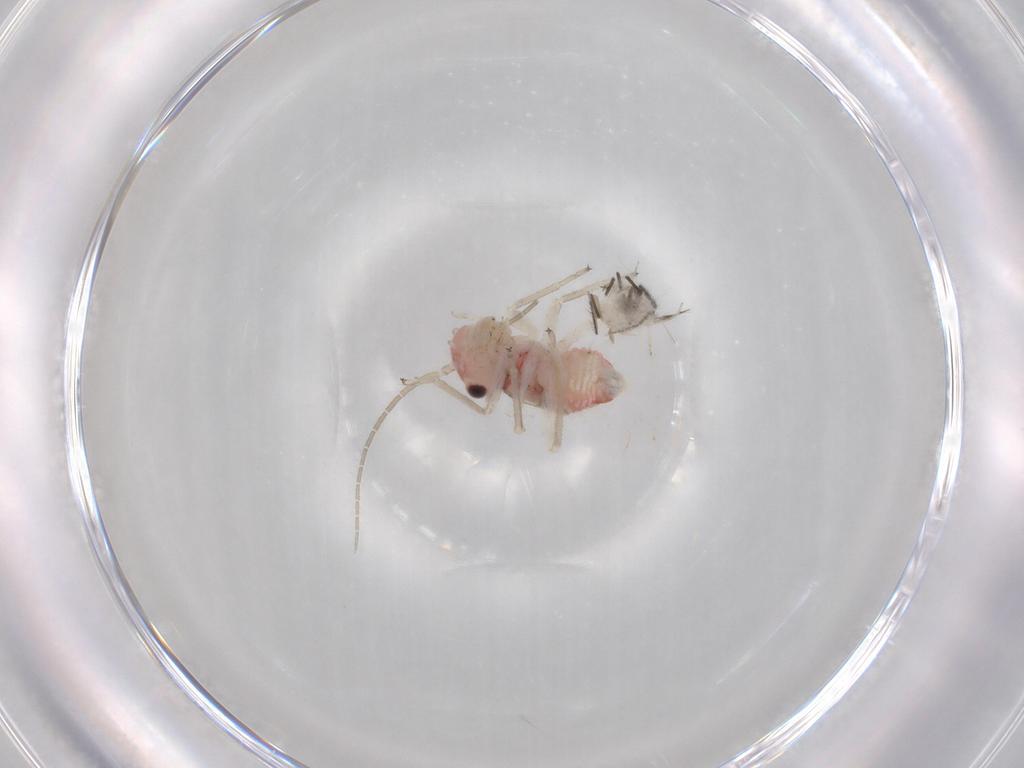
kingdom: Animalia
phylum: Arthropoda
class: Insecta
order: Psocodea
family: Amphipsocidae
